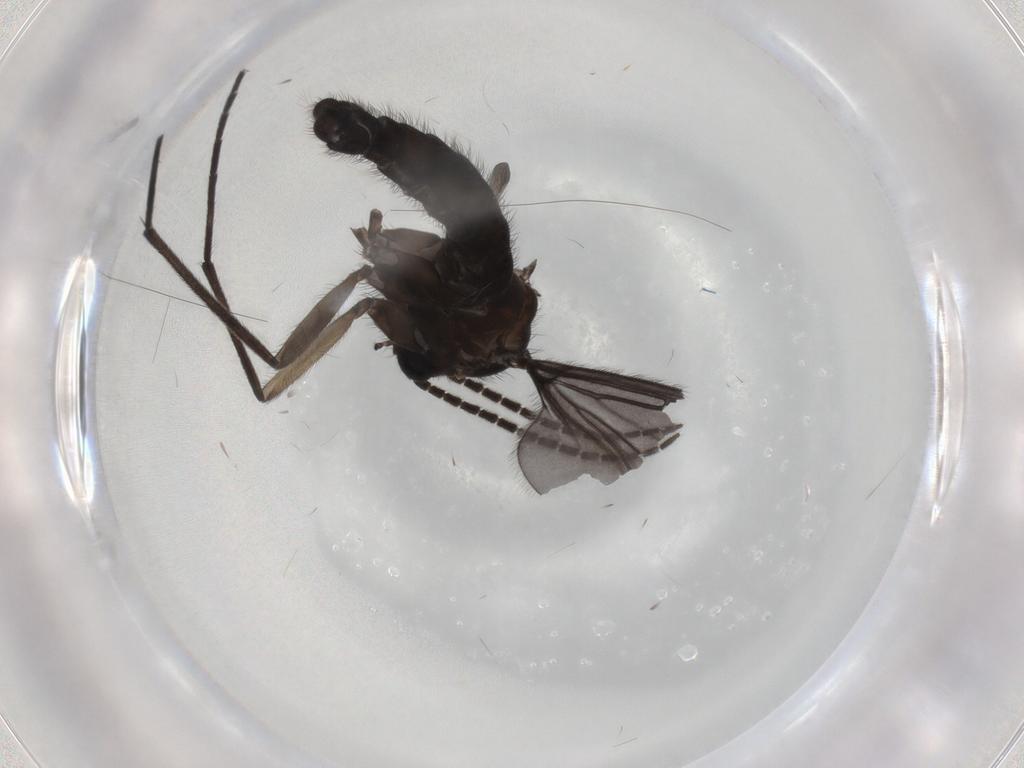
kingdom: Animalia
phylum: Arthropoda
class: Insecta
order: Diptera
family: Sciaridae
